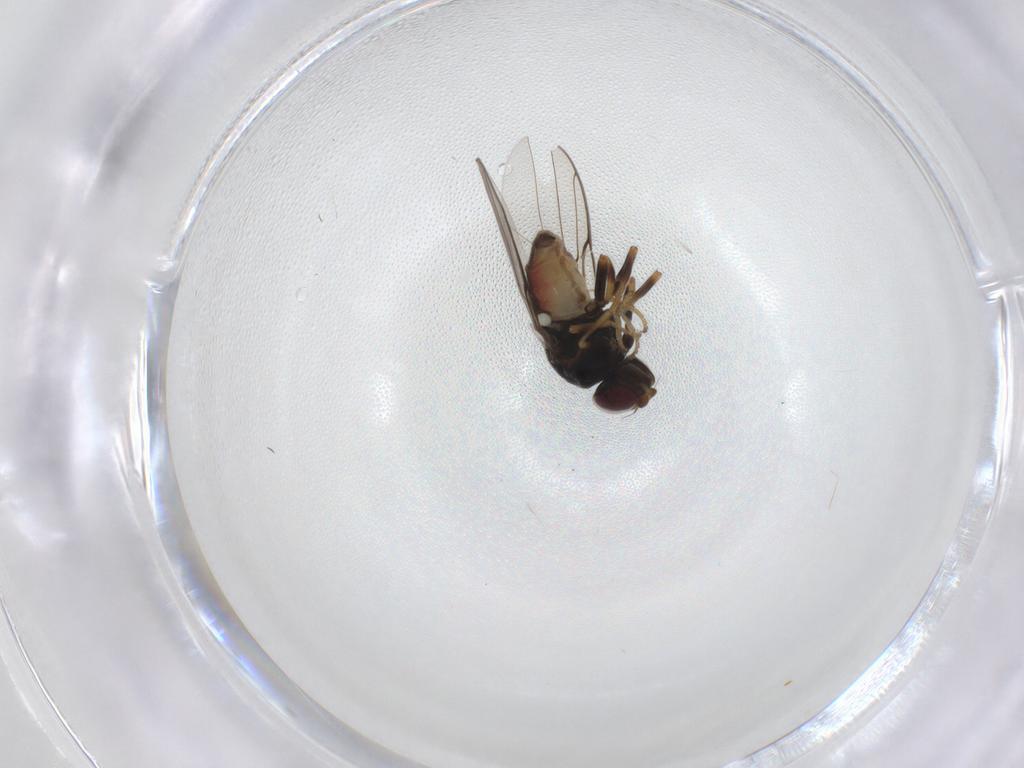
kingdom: Animalia
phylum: Arthropoda
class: Insecta
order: Diptera
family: Chloropidae
